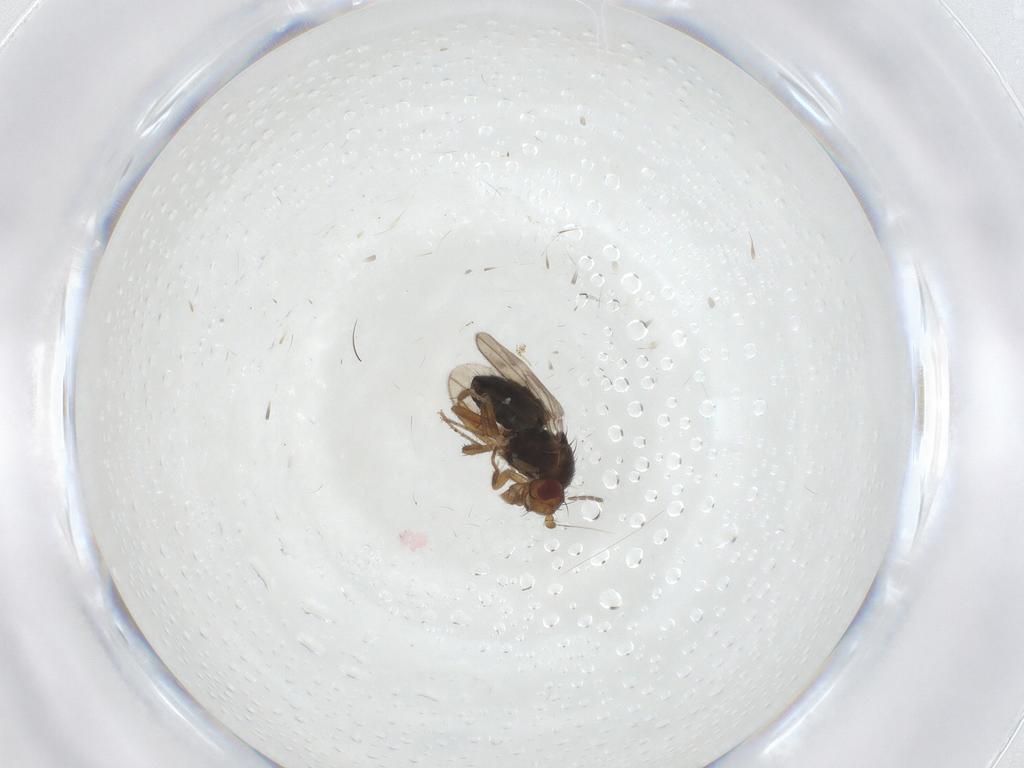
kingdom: Animalia
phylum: Arthropoda
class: Insecta
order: Diptera
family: Sphaeroceridae
